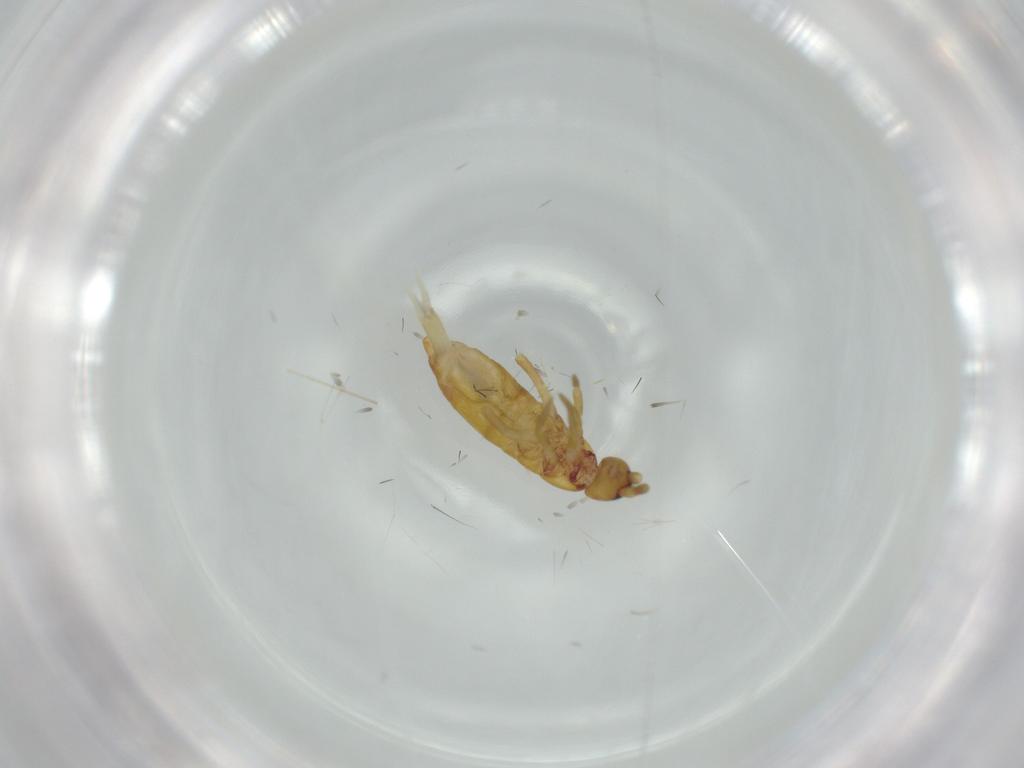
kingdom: Animalia
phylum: Arthropoda
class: Collembola
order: Entomobryomorpha
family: Tomoceridae
